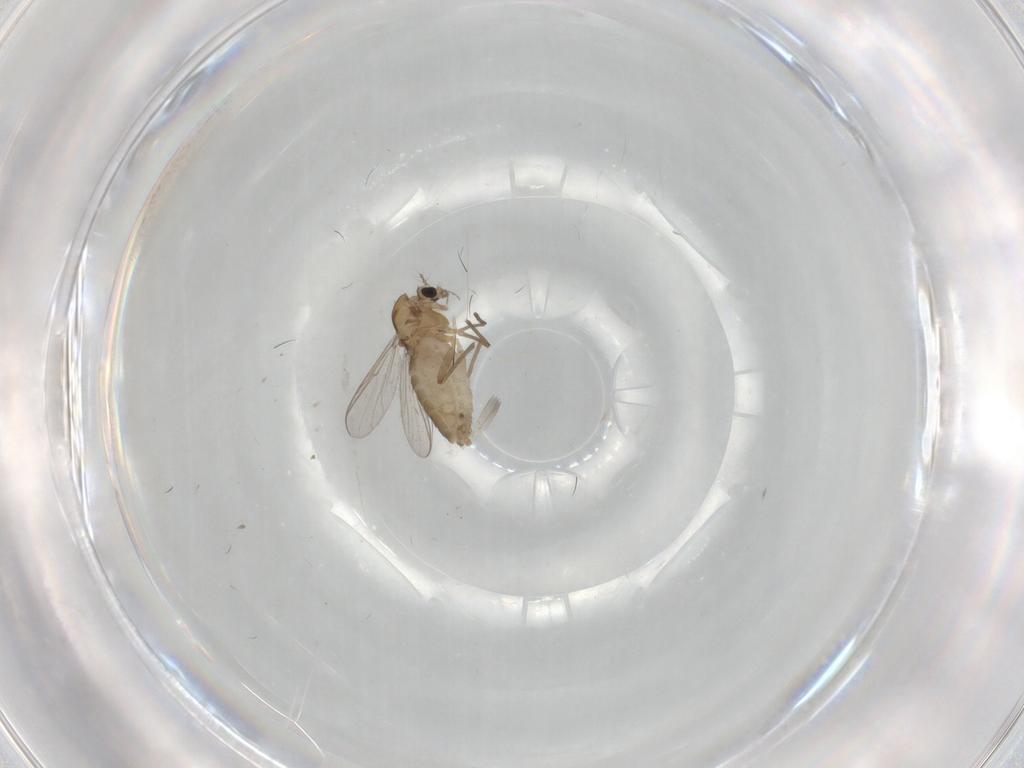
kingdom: Animalia
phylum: Arthropoda
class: Insecta
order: Diptera
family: Chironomidae
